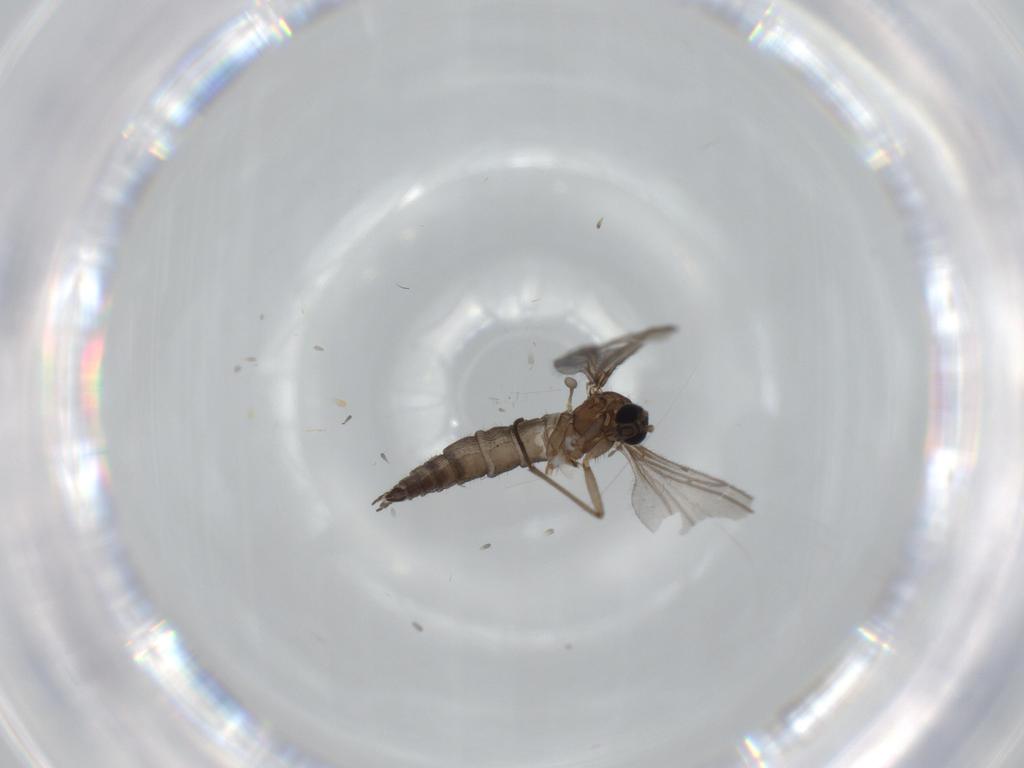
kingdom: Animalia
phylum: Arthropoda
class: Insecta
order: Diptera
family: Sciaridae
